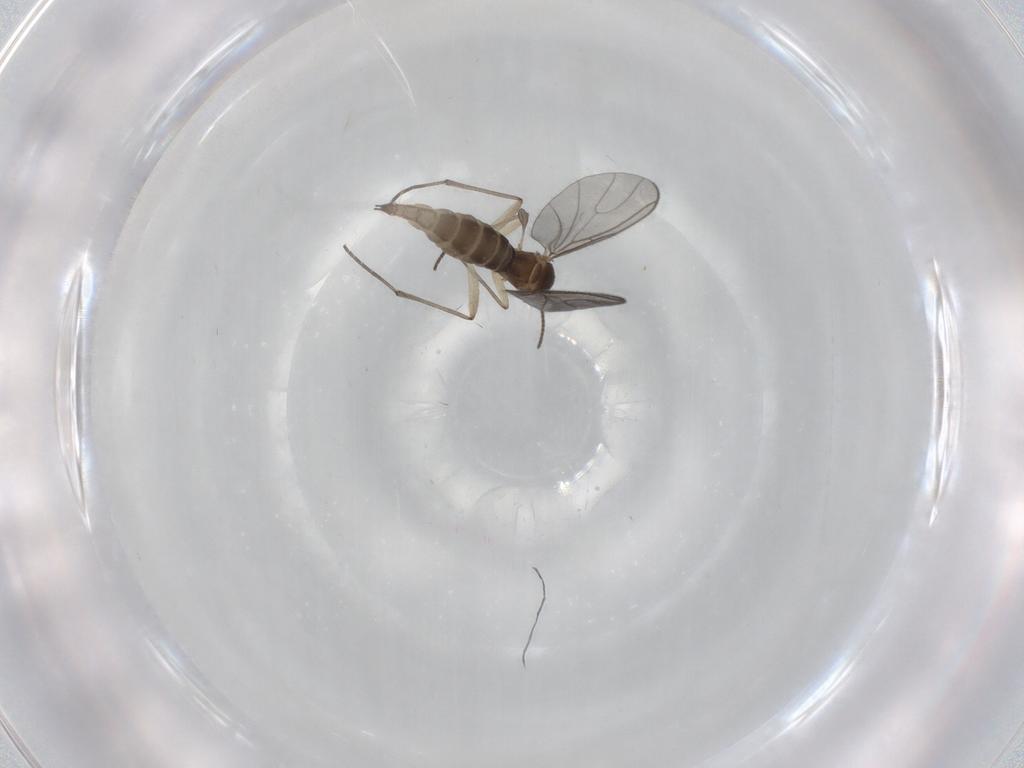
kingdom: Animalia
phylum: Arthropoda
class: Insecta
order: Diptera
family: Sciaridae
